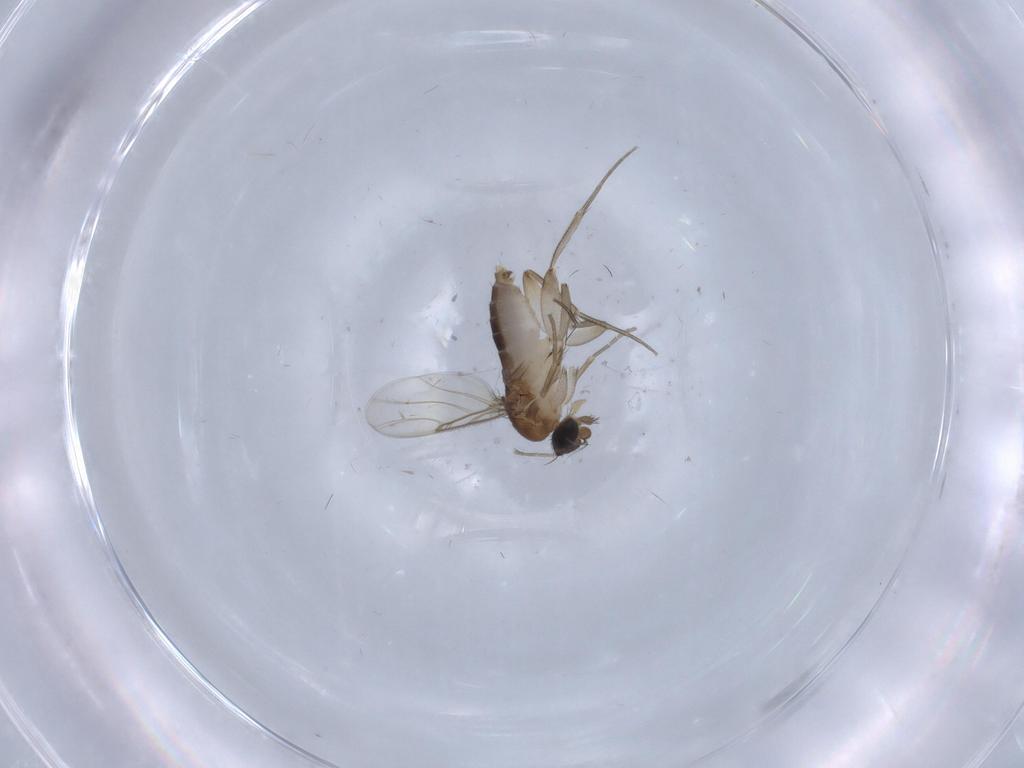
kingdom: Animalia
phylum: Arthropoda
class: Insecta
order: Diptera
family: Phoridae
